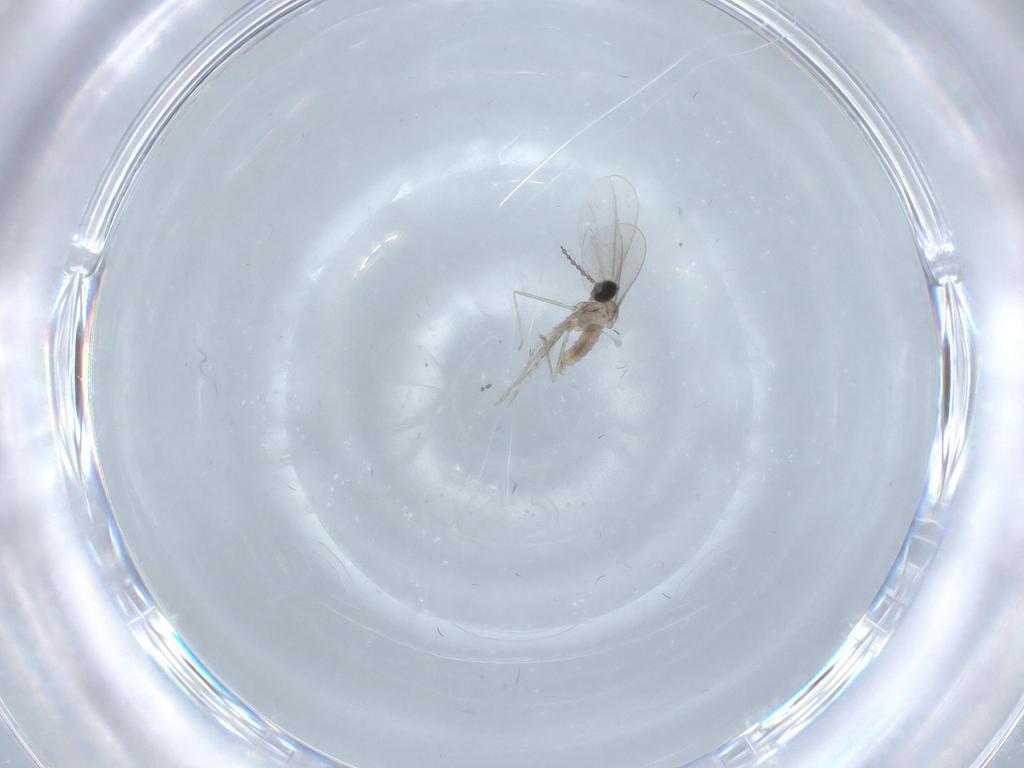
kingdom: Animalia
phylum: Arthropoda
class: Insecta
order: Diptera
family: Cecidomyiidae
